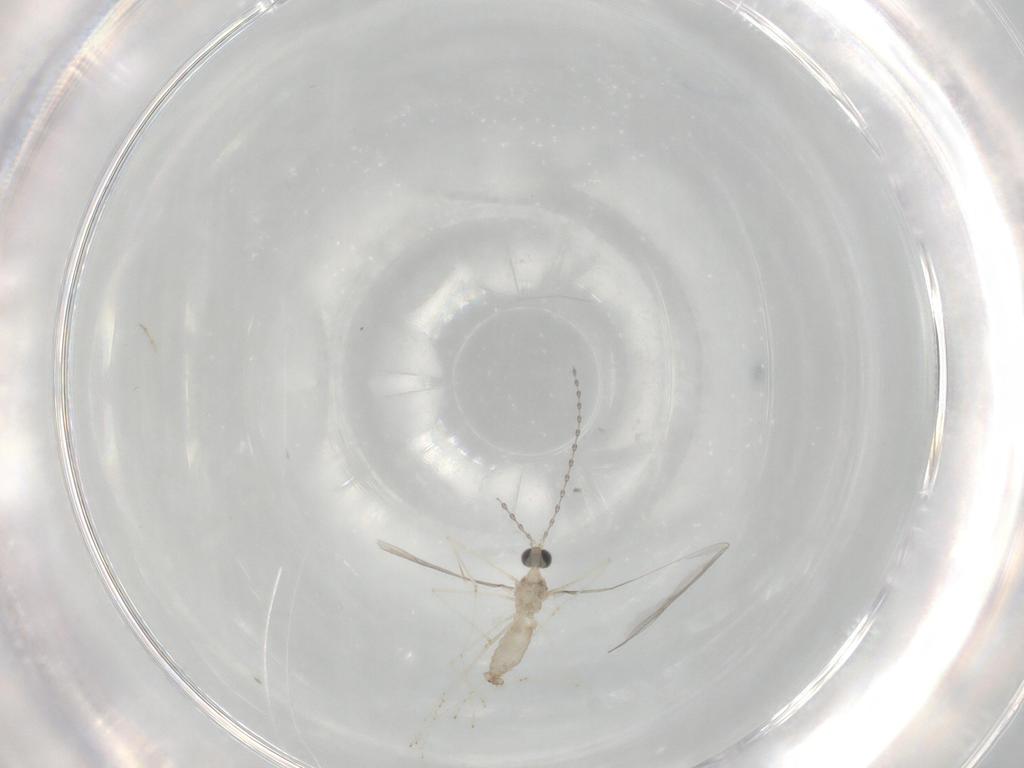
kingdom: Animalia
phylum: Arthropoda
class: Insecta
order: Diptera
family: Cecidomyiidae
